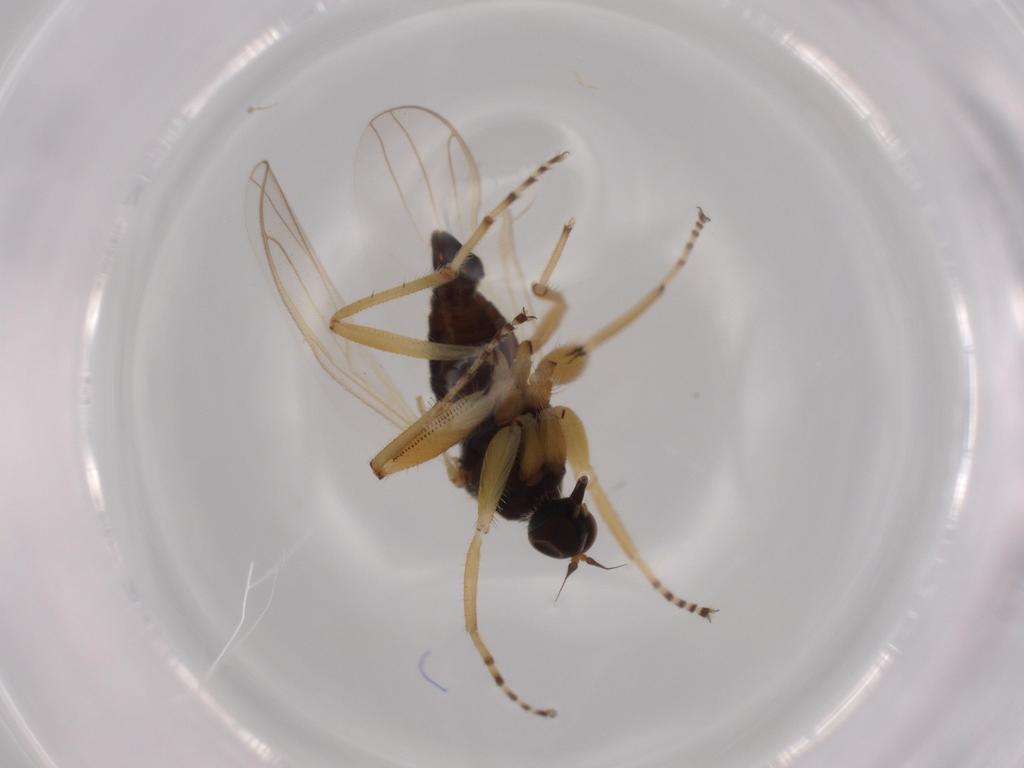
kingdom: Animalia
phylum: Arthropoda
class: Insecta
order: Diptera
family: Hybotidae
